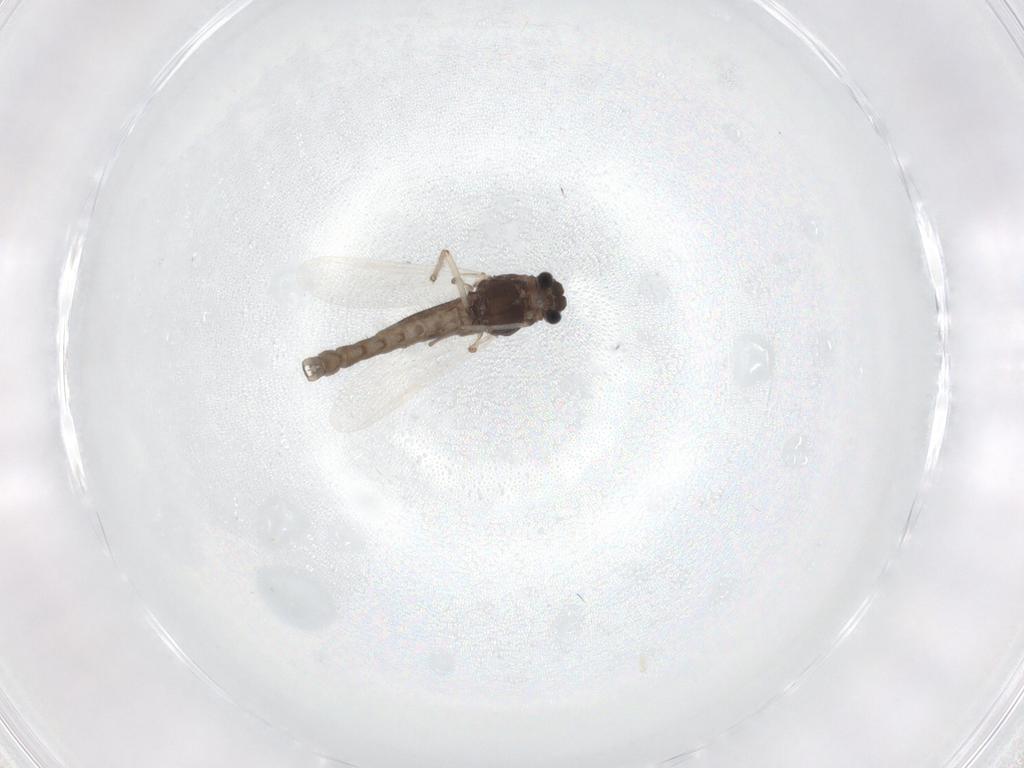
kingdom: Animalia
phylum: Arthropoda
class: Insecta
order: Diptera
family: Chironomidae
